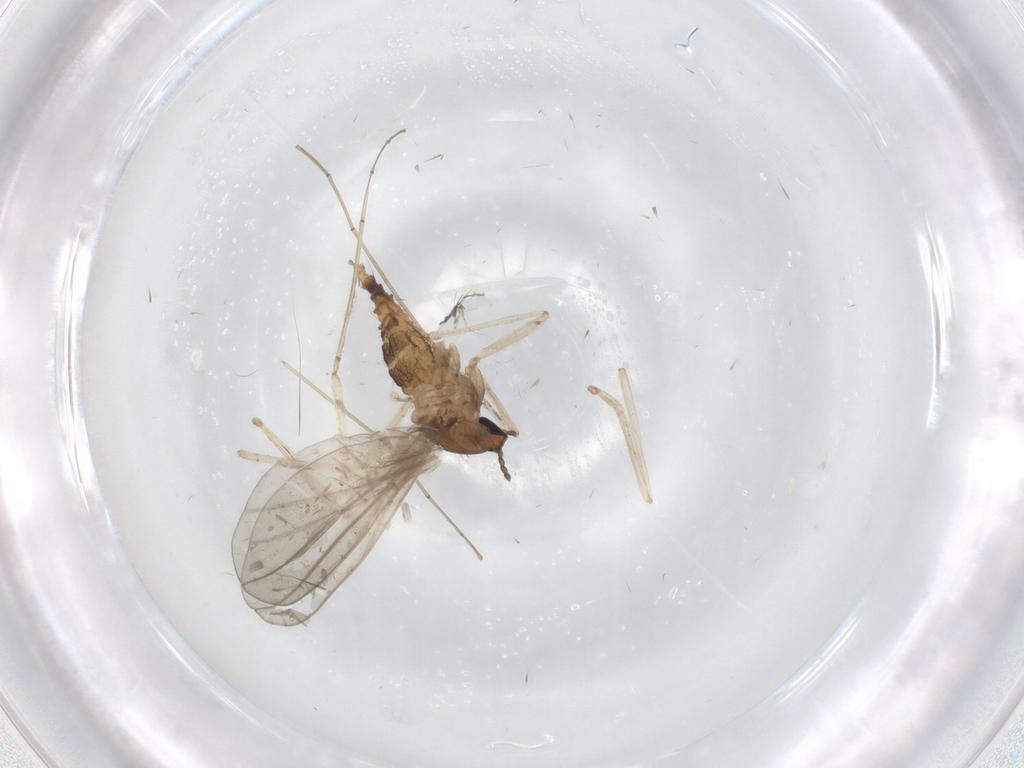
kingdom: Animalia
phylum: Arthropoda
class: Insecta
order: Diptera
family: Cecidomyiidae
